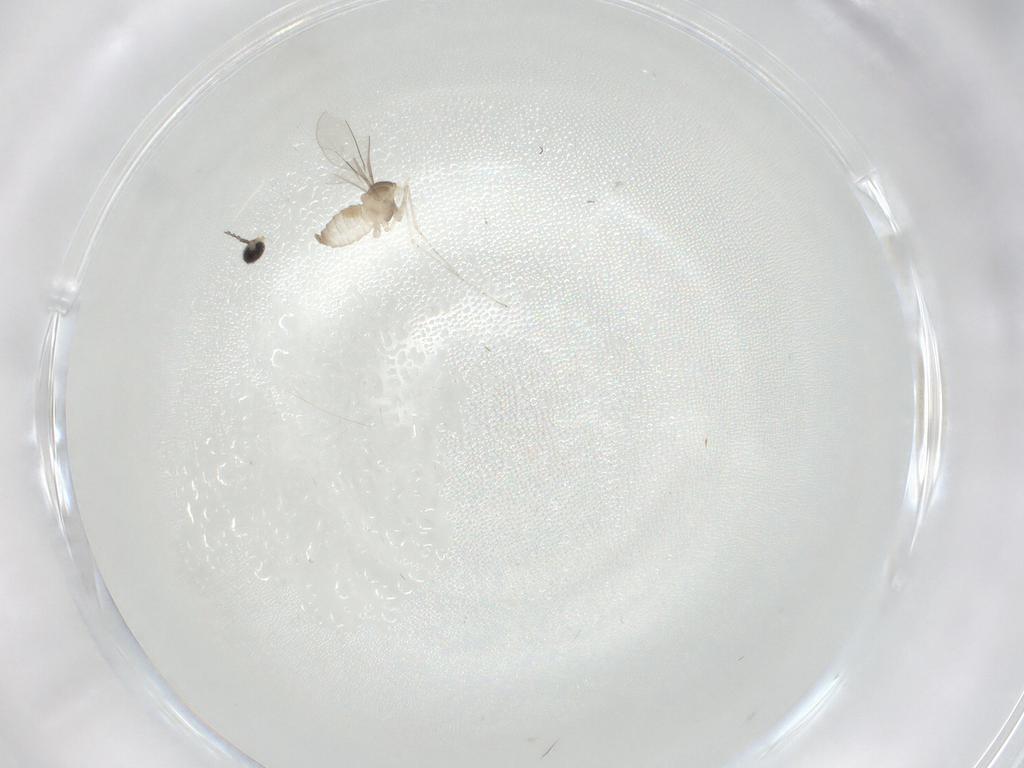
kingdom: Animalia
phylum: Arthropoda
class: Insecta
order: Diptera
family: Cecidomyiidae
